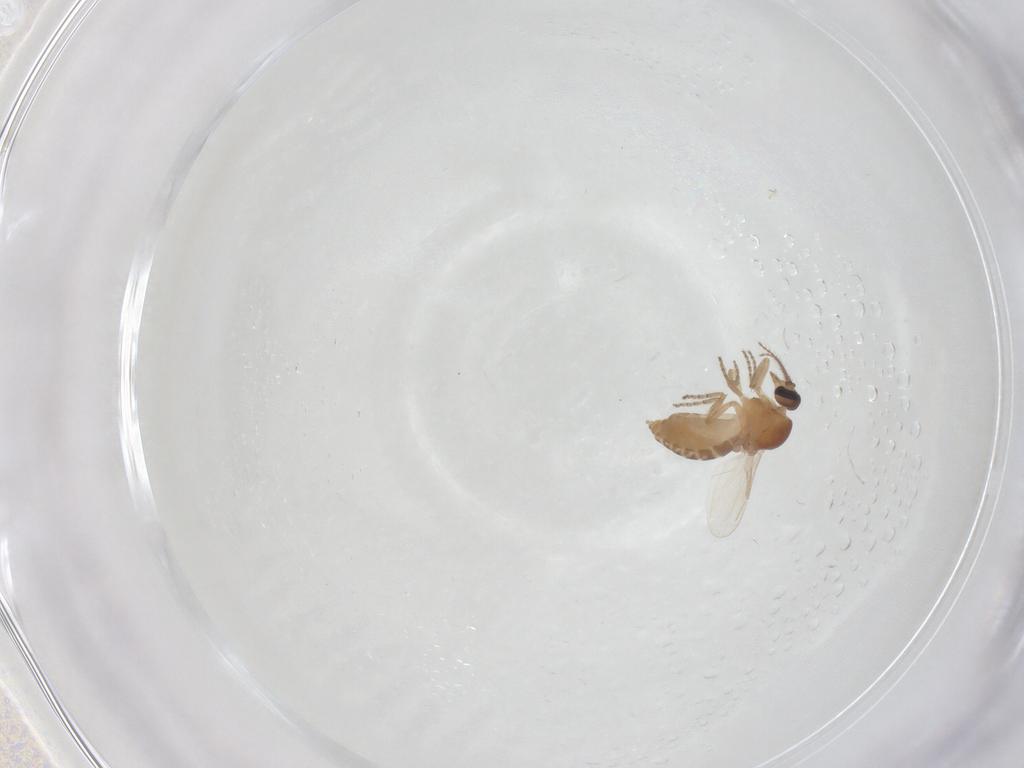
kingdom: Animalia
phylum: Arthropoda
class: Insecta
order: Diptera
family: Ceratopogonidae
